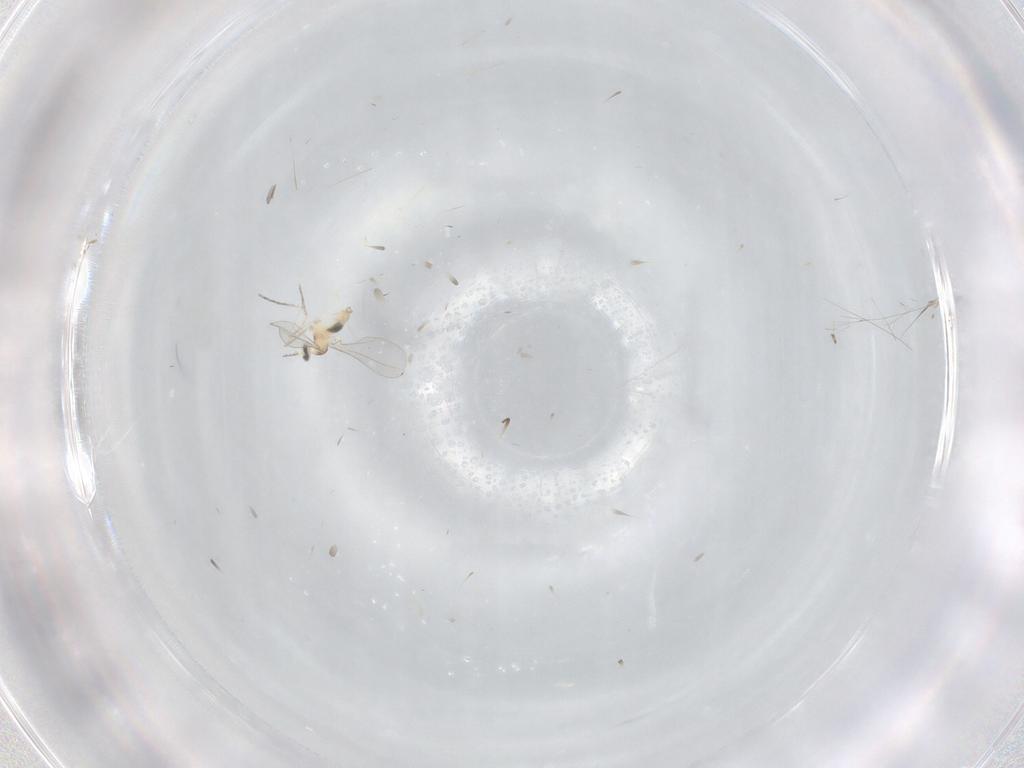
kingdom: Animalia
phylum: Arthropoda
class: Insecta
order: Diptera
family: Cecidomyiidae
